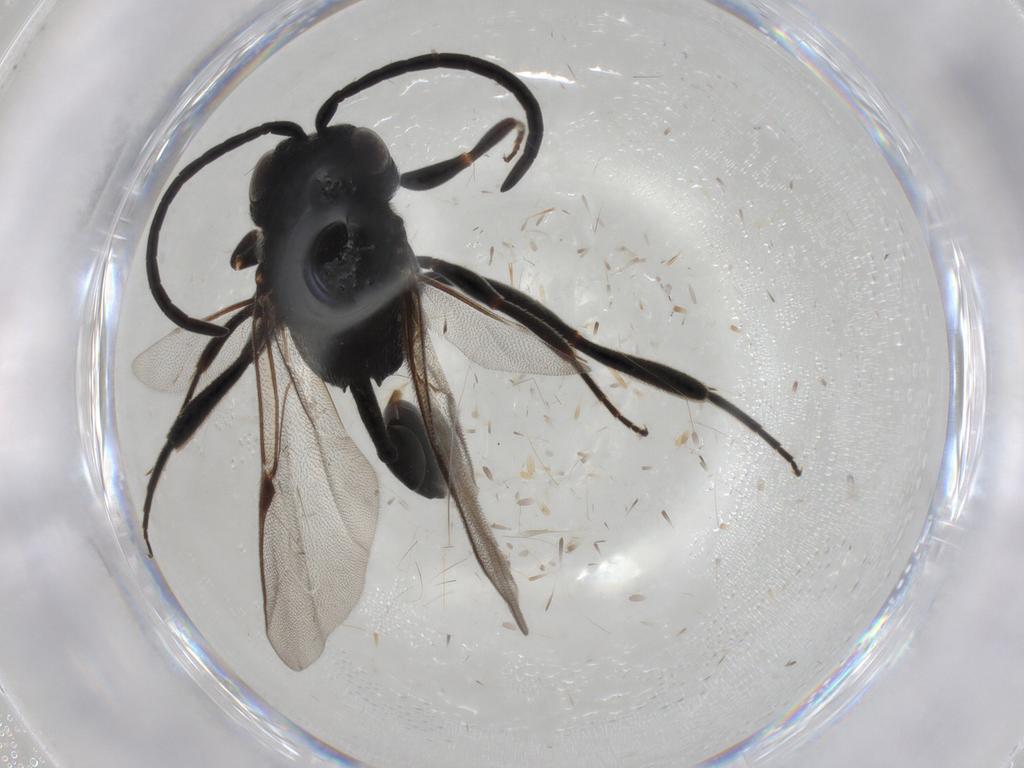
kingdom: Animalia
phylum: Arthropoda
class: Insecta
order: Hymenoptera
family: Evaniidae
